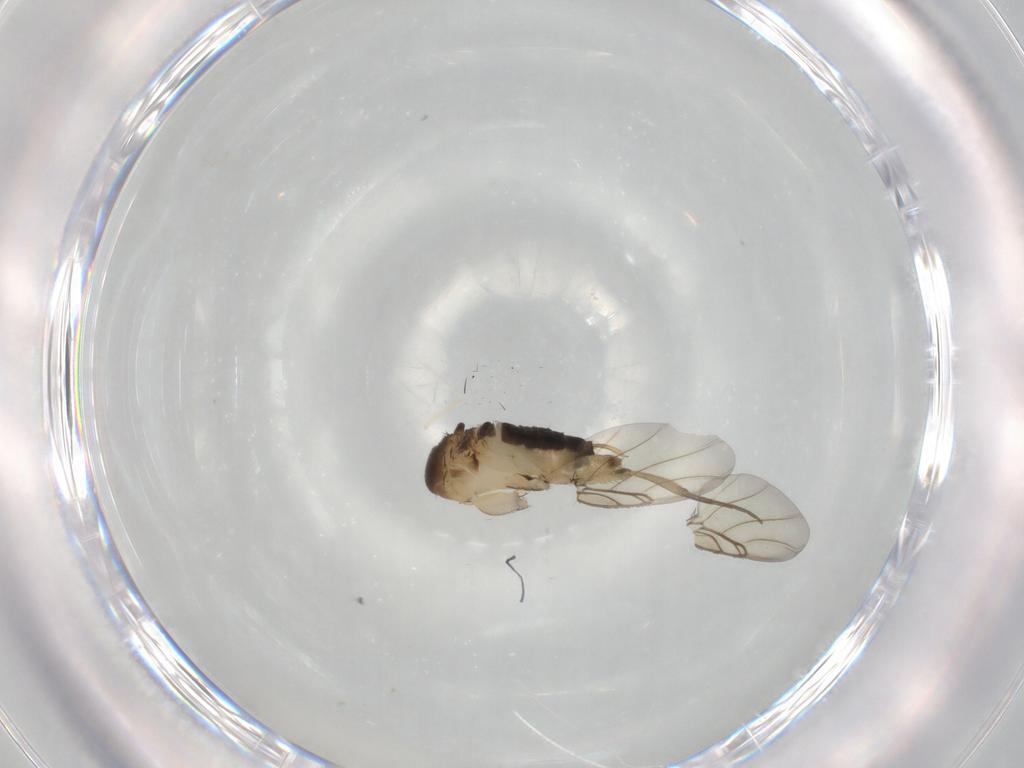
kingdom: Animalia
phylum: Arthropoda
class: Insecta
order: Diptera
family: Phoridae
